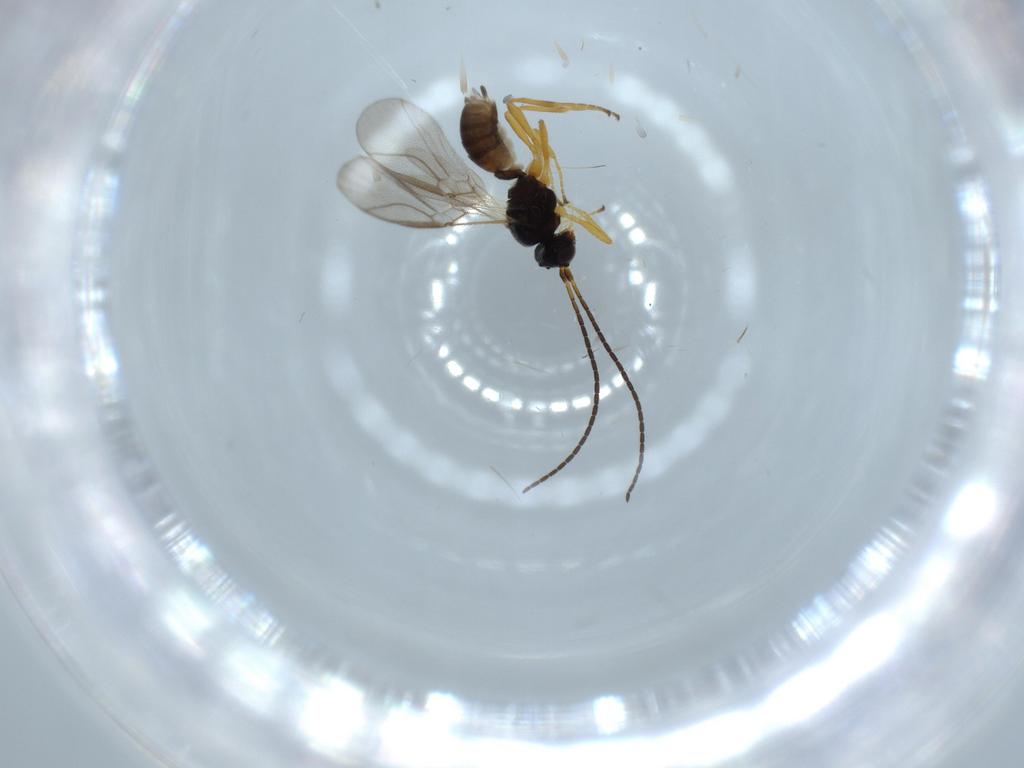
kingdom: Animalia
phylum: Arthropoda
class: Insecta
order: Hymenoptera
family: Braconidae
